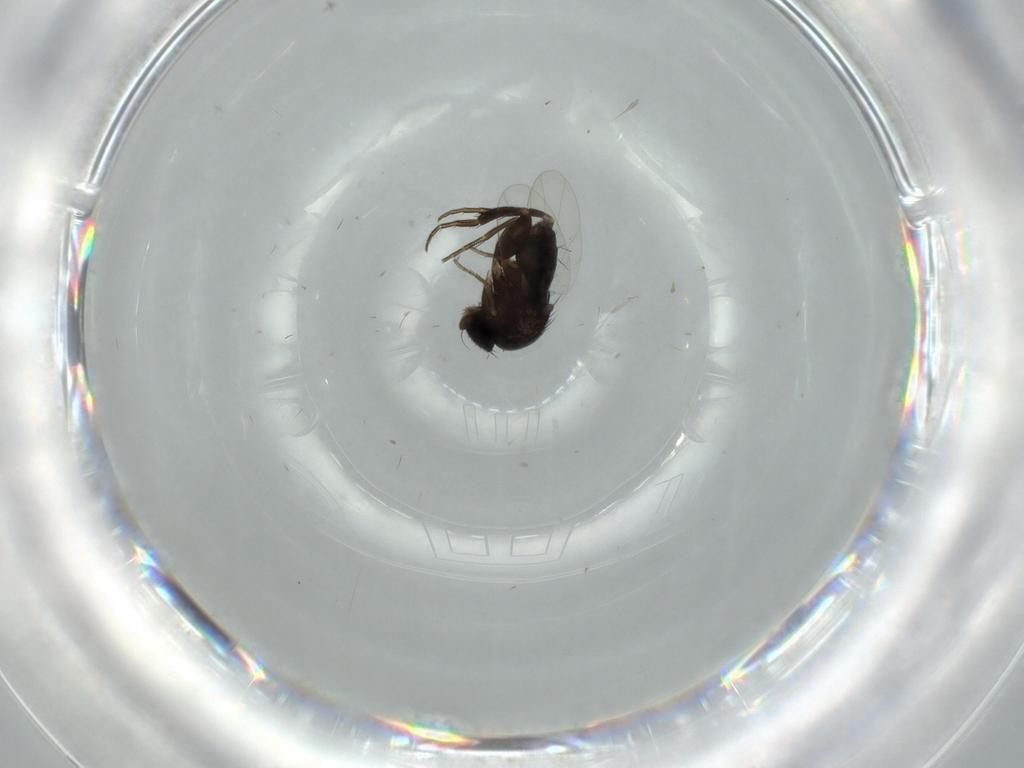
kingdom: Animalia
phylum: Arthropoda
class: Insecta
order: Diptera
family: Phoridae
